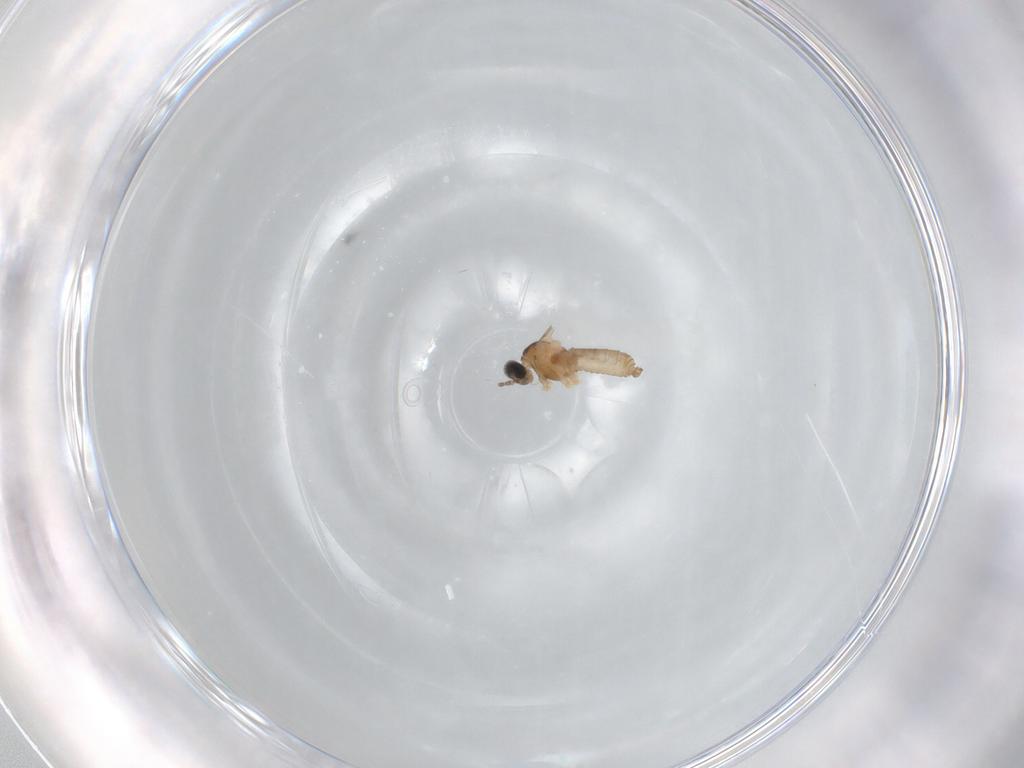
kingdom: Animalia
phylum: Arthropoda
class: Insecta
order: Diptera
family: Cecidomyiidae
